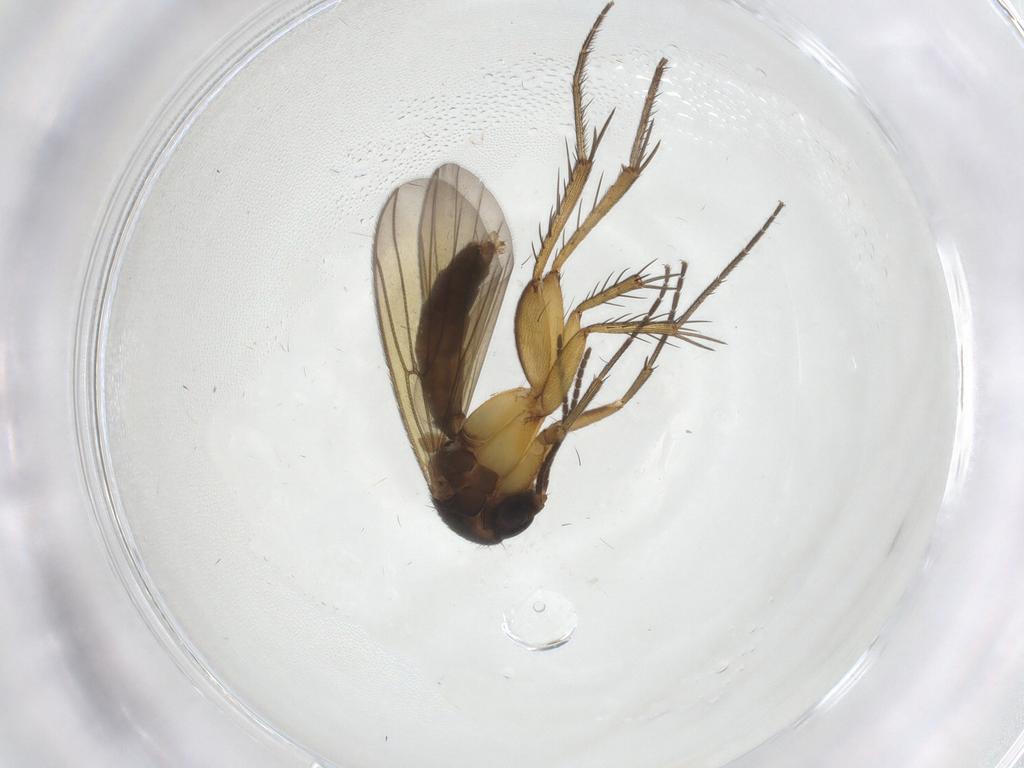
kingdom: Animalia
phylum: Arthropoda
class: Insecta
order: Diptera
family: Mycetophilidae
